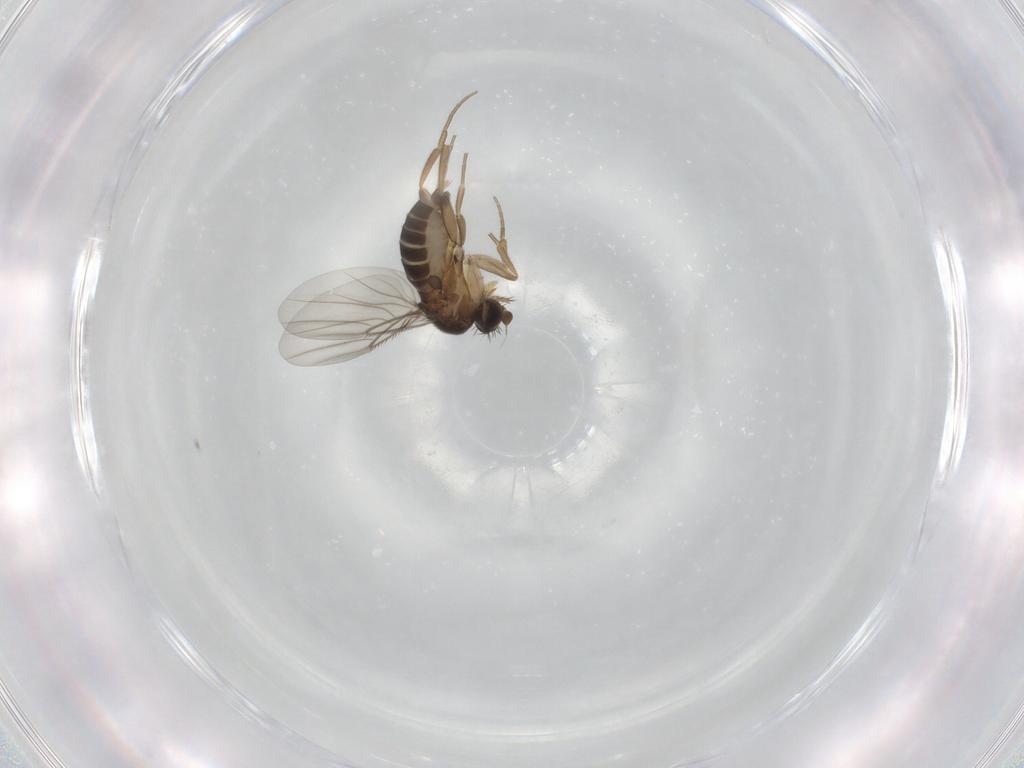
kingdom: Animalia
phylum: Arthropoda
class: Insecta
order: Diptera
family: Phoridae
